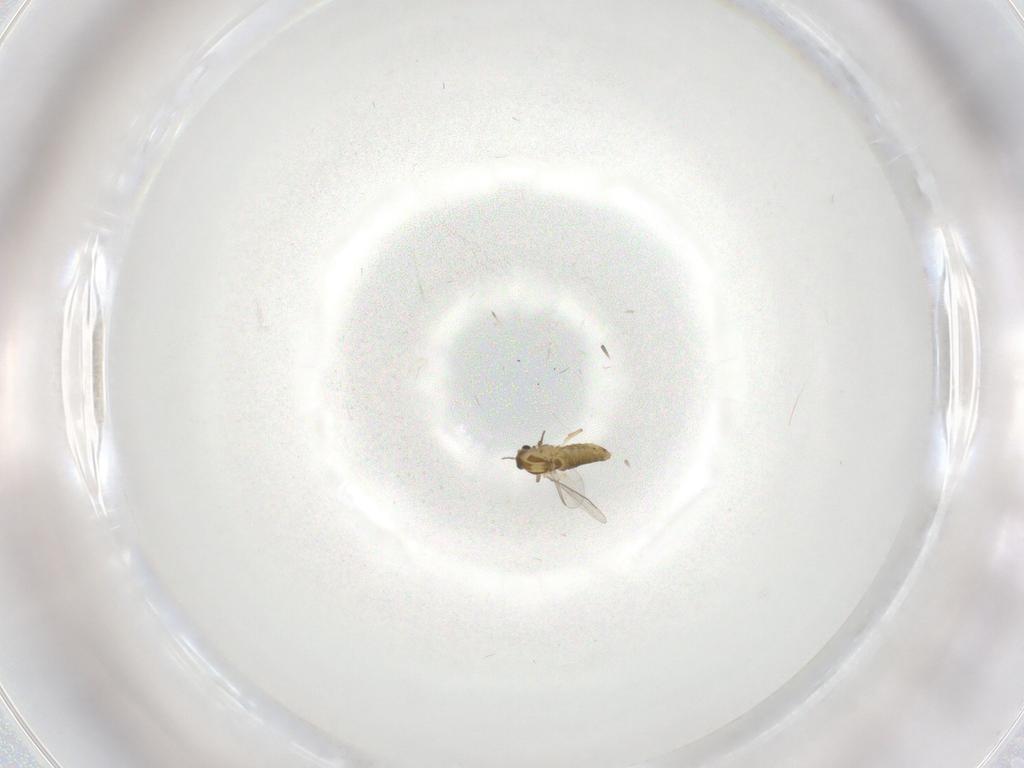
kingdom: Animalia
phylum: Arthropoda
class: Insecta
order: Diptera
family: Chironomidae
